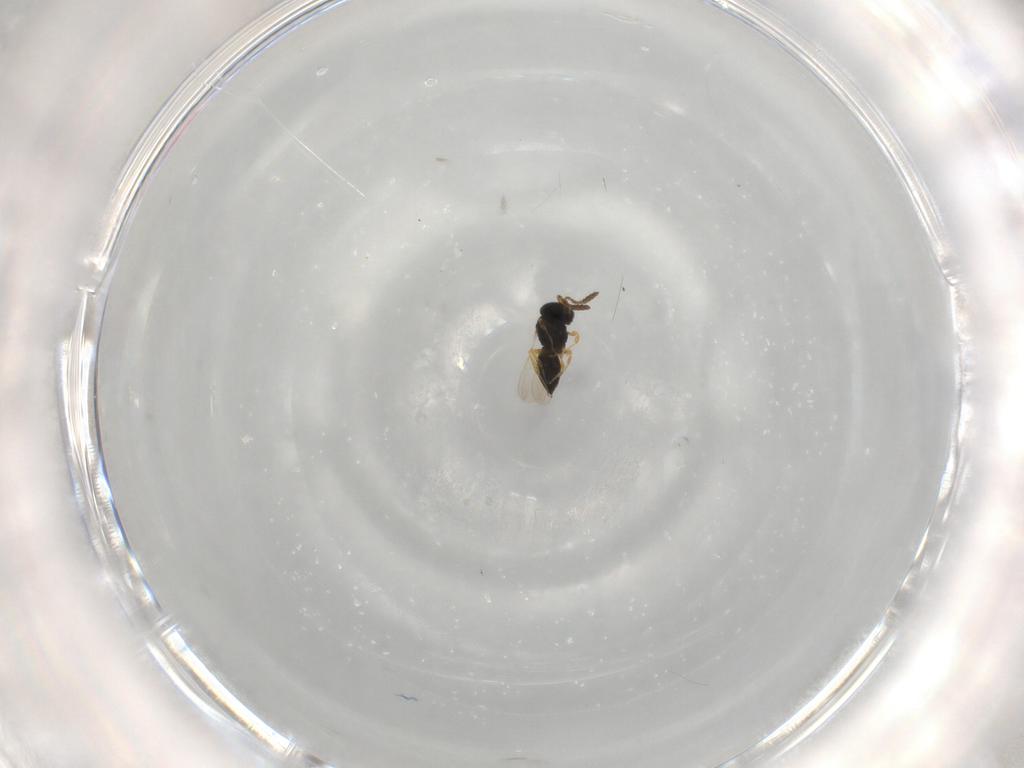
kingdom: Animalia
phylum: Arthropoda
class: Insecta
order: Hymenoptera
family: Scelionidae
